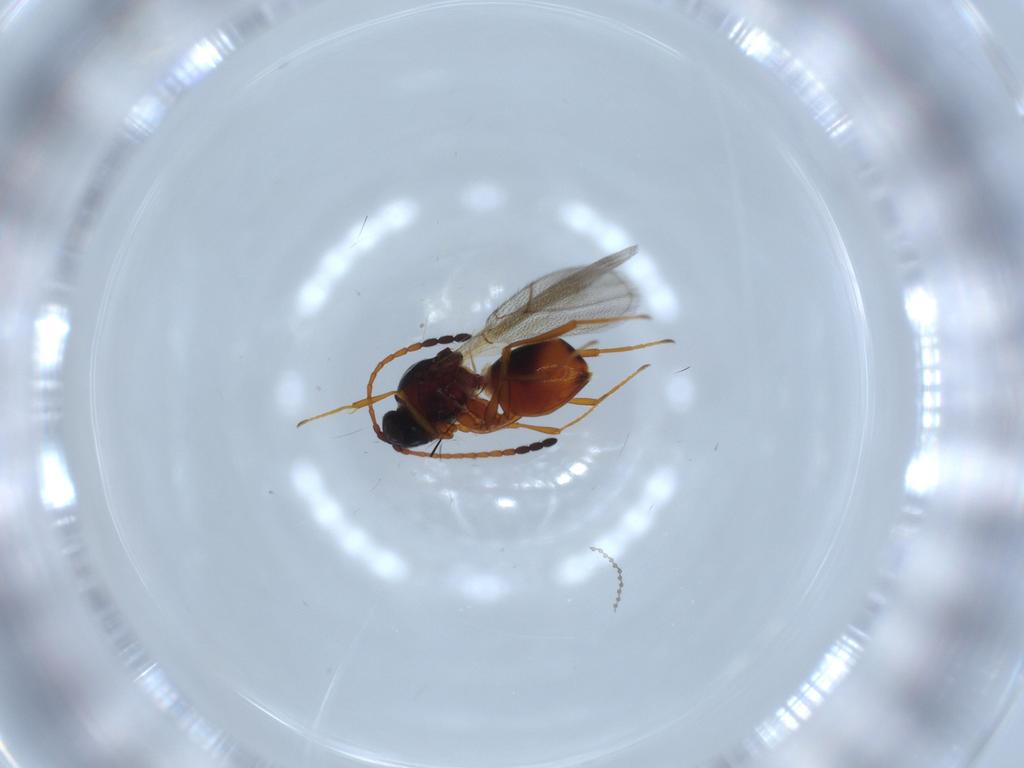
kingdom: Animalia
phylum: Arthropoda
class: Insecta
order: Hymenoptera
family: Figitidae
